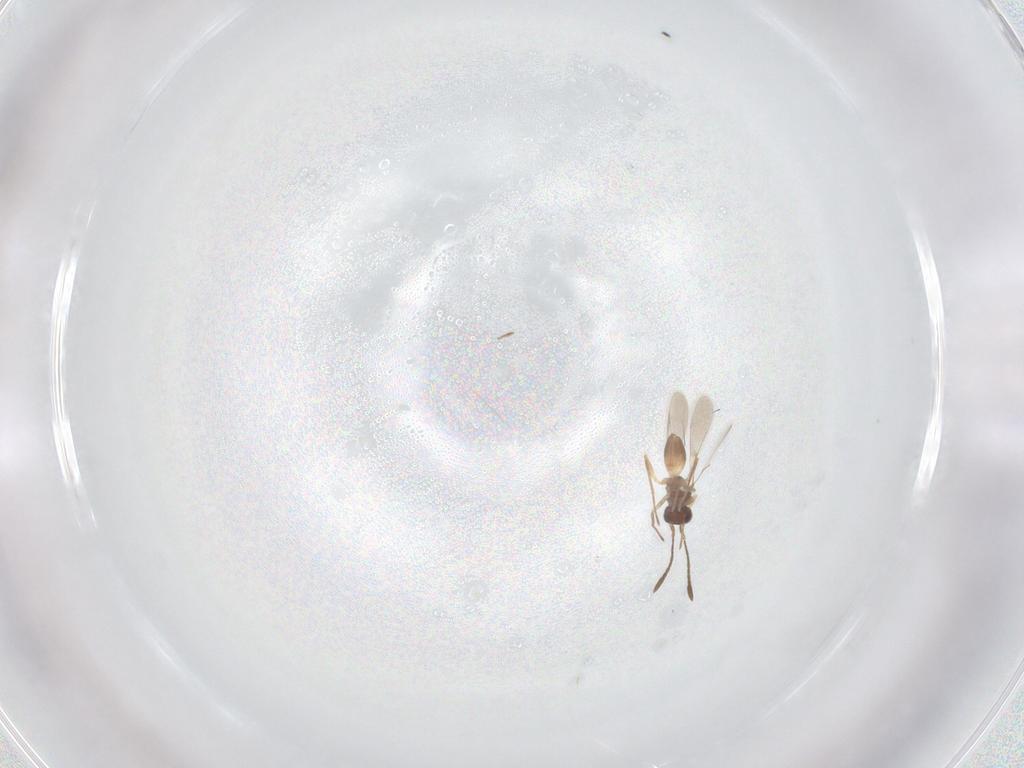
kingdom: Animalia
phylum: Arthropoda
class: Insecta
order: Hymenoptera
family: Mymaridae
